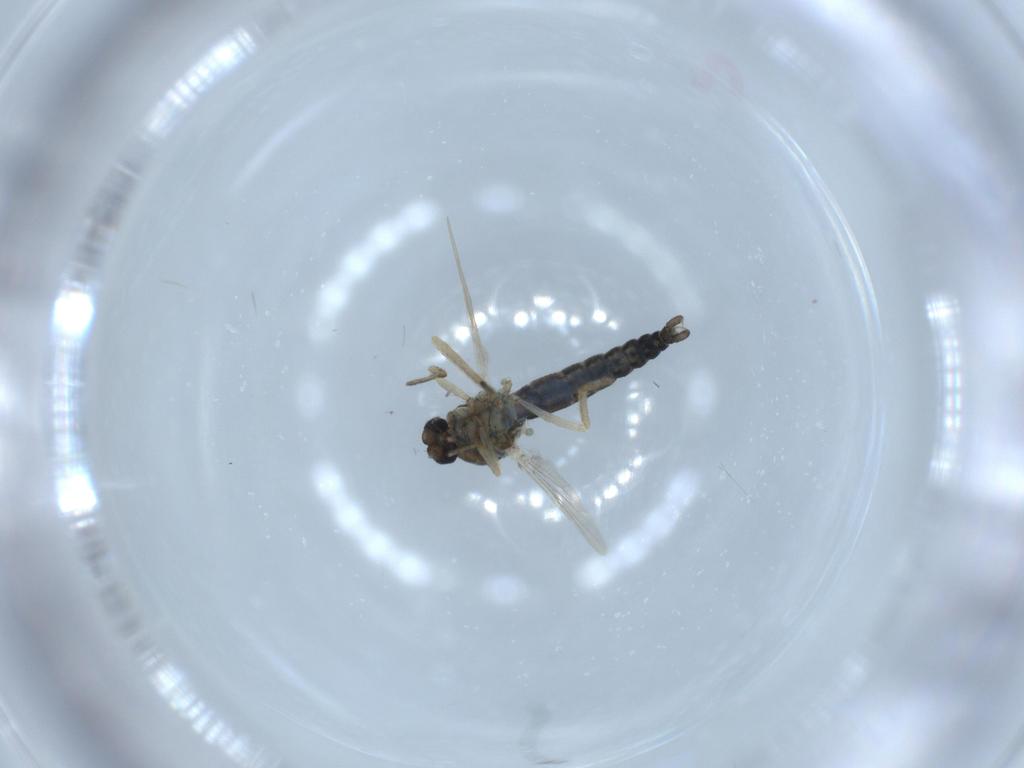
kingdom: Animalia
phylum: Arthropoda
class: Insecta
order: Diptera
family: Ceratopogonidae
